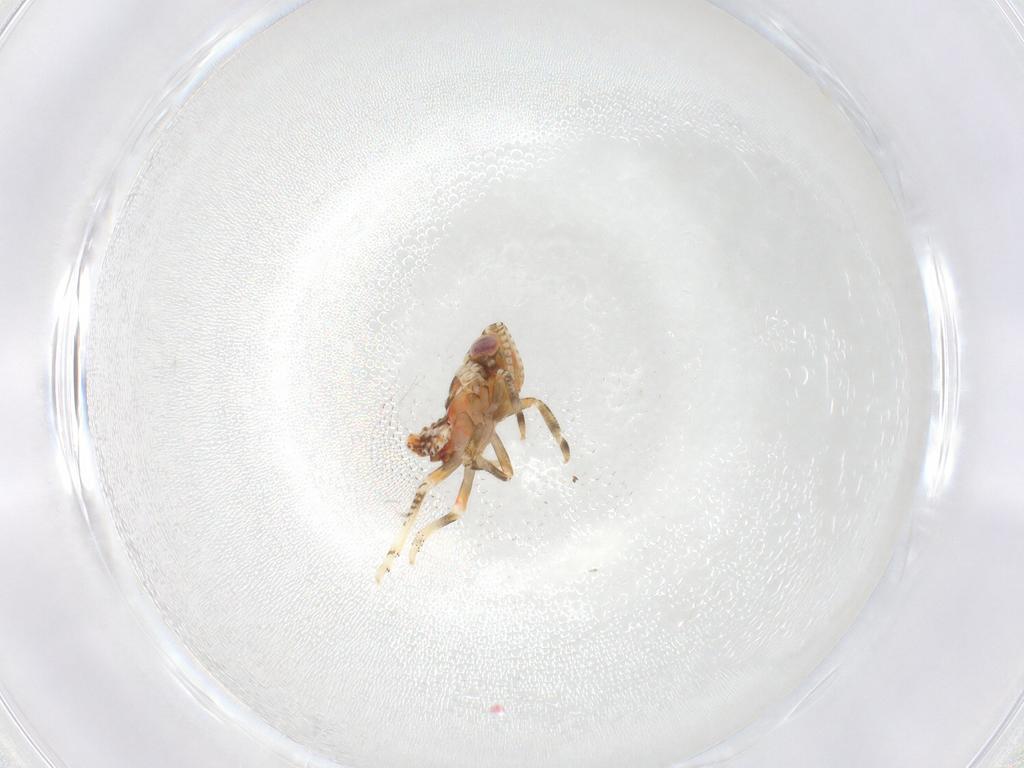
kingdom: Animalia
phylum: Arthropoda
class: Insecta
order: Hemiptera
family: Tropiduchidae
